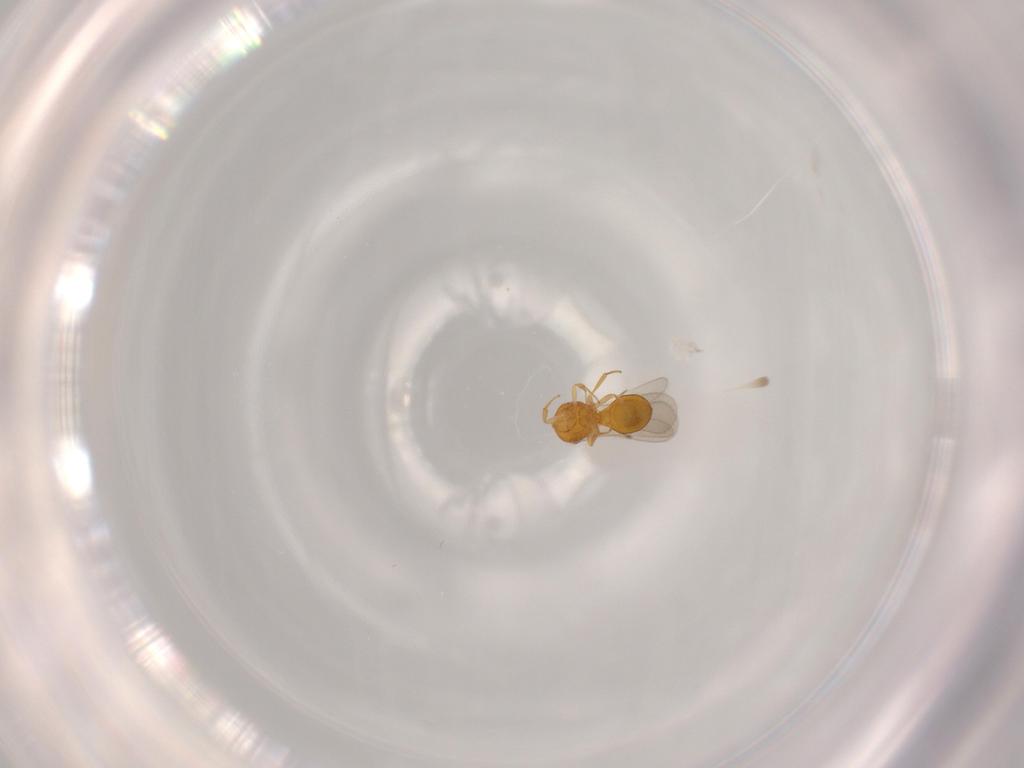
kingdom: Animalia
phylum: Arthropoda
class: Insecta
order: Hymenoptera
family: Scelionidae
